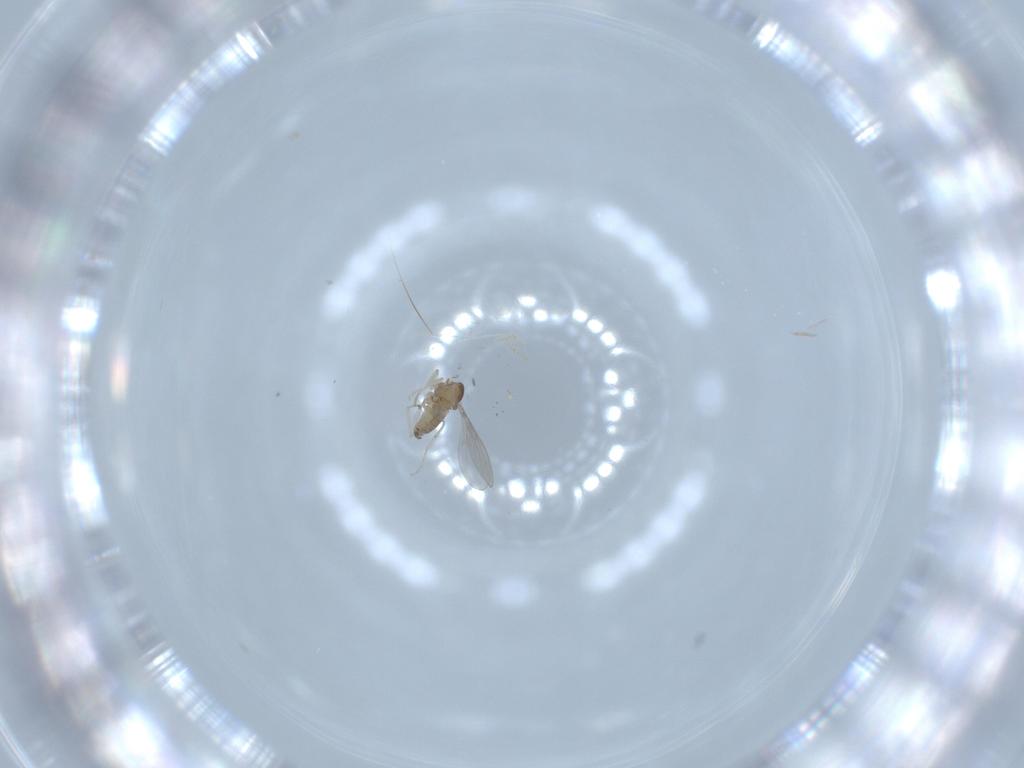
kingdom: Animalia
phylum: Arthropoda
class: Insecta
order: Diptera
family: Cecidomyiidae
